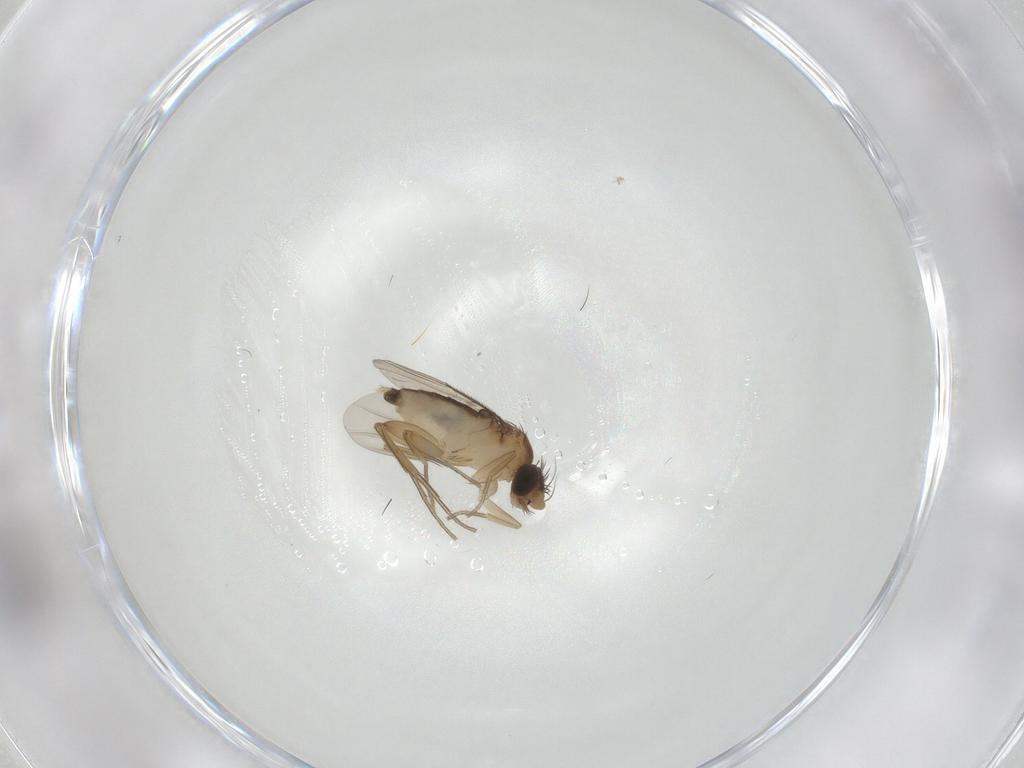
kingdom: Animalia
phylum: Arthropoda
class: Insecta
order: Diptera
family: Phoridae
